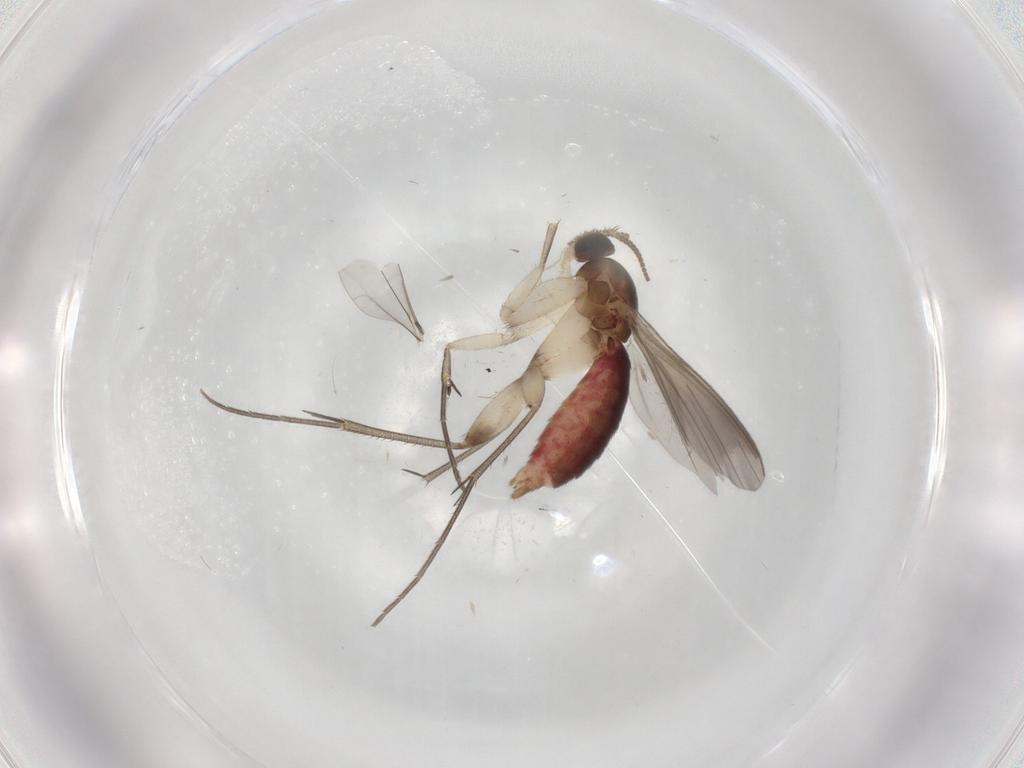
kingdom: Animalia
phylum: Arthropoda
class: Insecta
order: Diptera
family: Mycetophilidae
